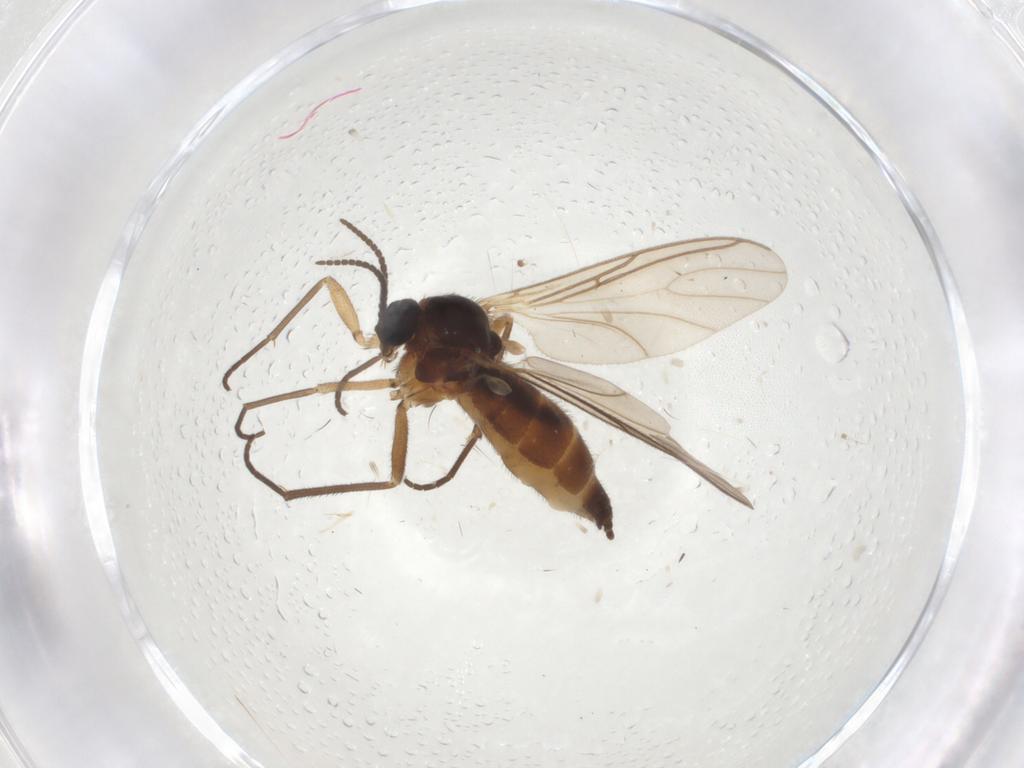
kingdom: Animalia
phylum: Arthropoda
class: Insecta
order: Diptera
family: Sciaridae
